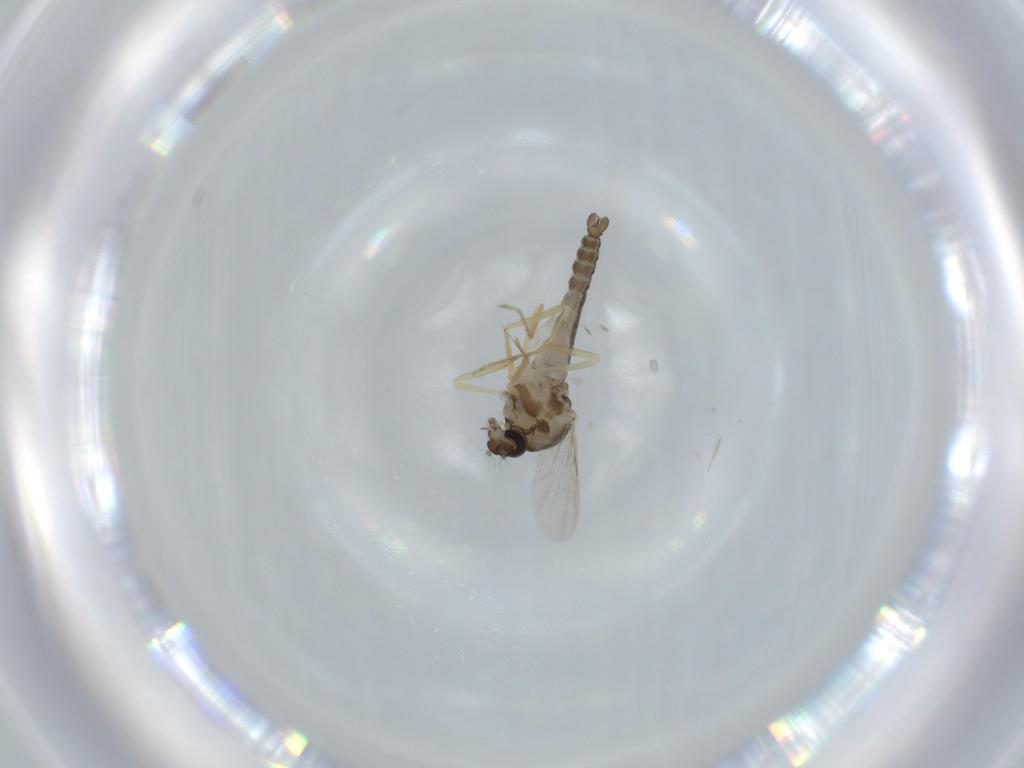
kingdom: Animalia
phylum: Arthropoda
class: Insecta
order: Diptera
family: Ceratopogonidae
